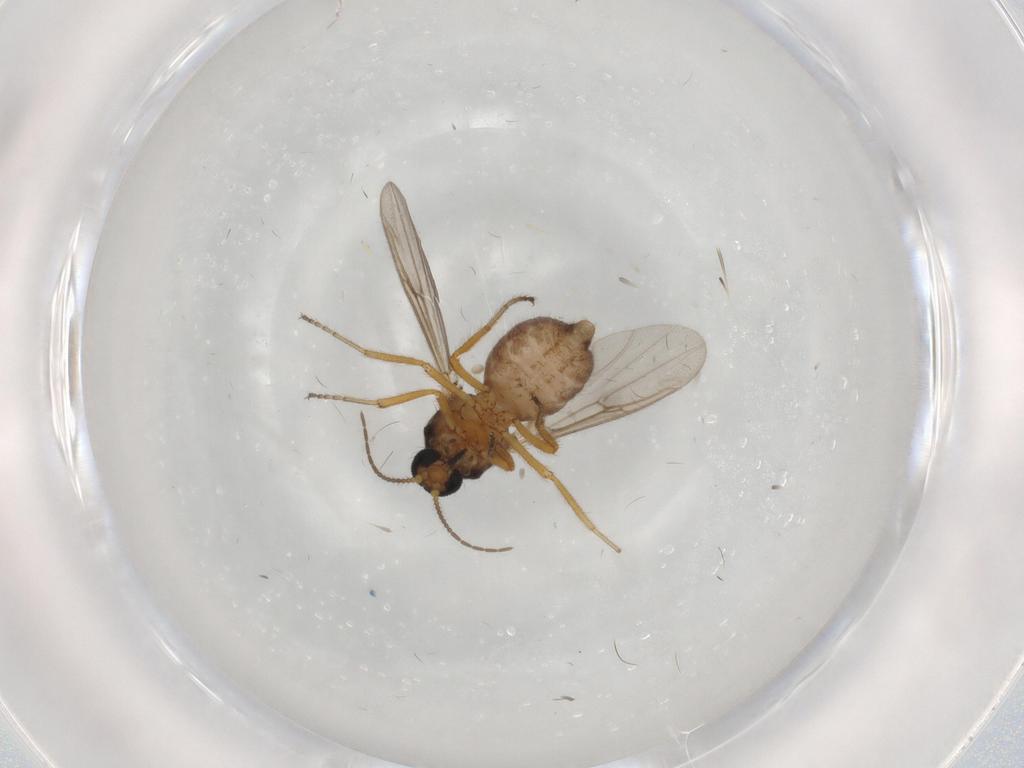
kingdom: Animalia
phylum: Arthropoda
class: Insecta
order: Diptera
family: Ceratopogonidae
